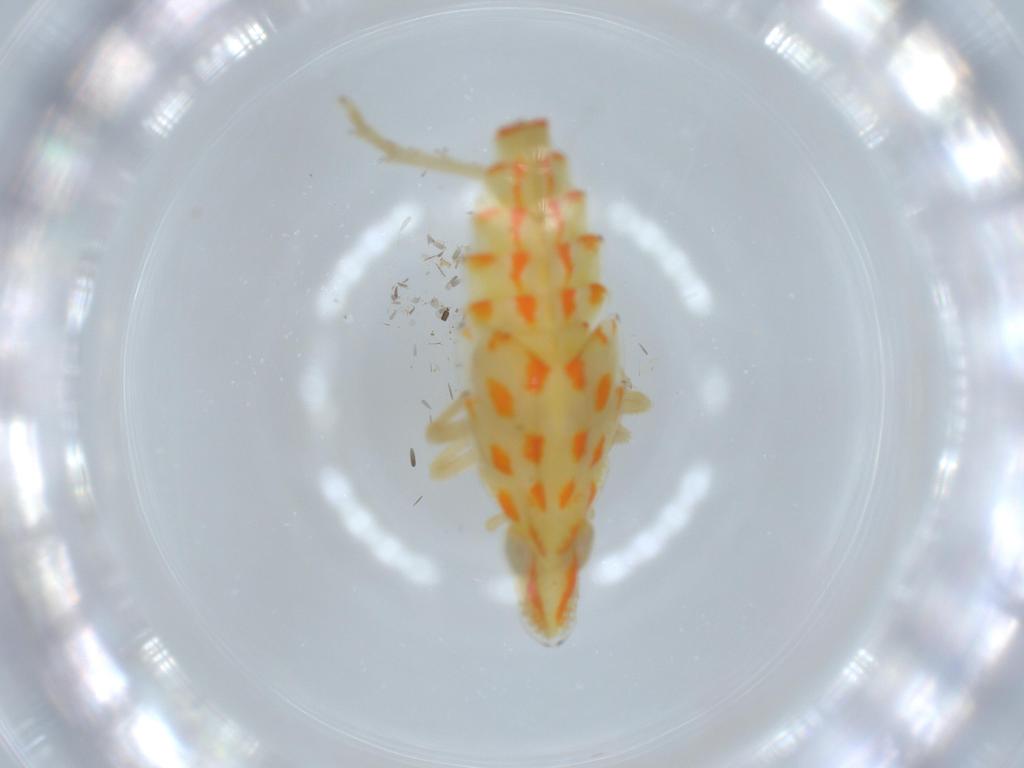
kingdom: Animalia
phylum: Arthropoda
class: Insecta
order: Hemiptera
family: Tropiduchidae
